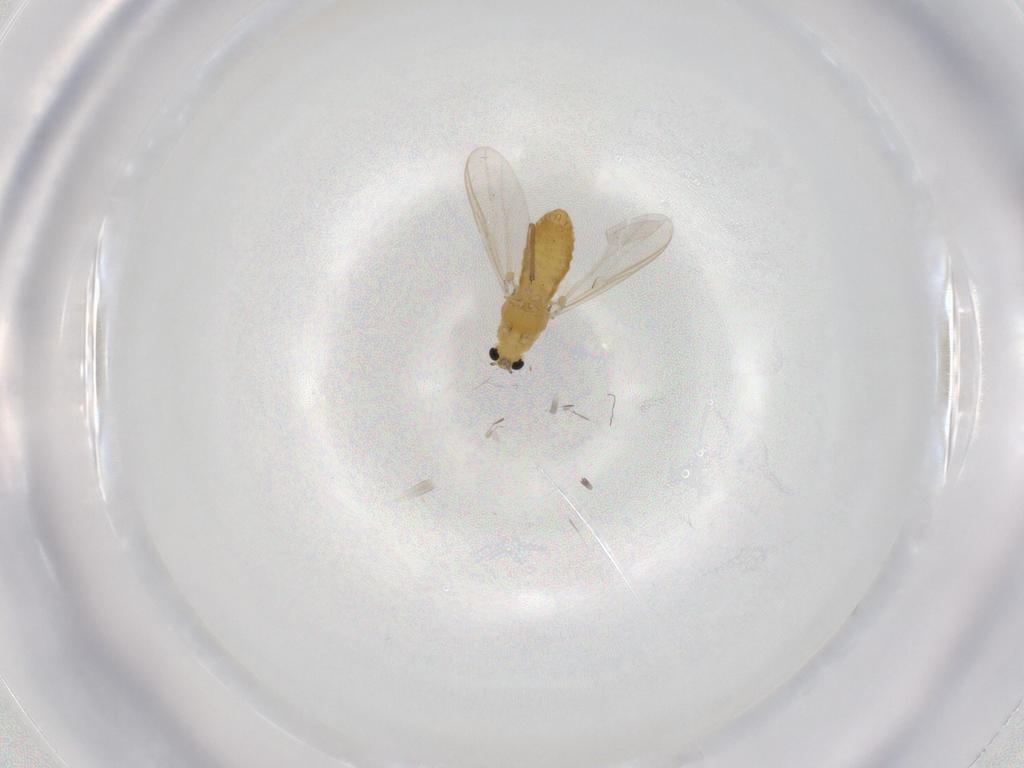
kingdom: Animalia
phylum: Arthropoda
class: Insecta
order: Diptera
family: Chironomidae
